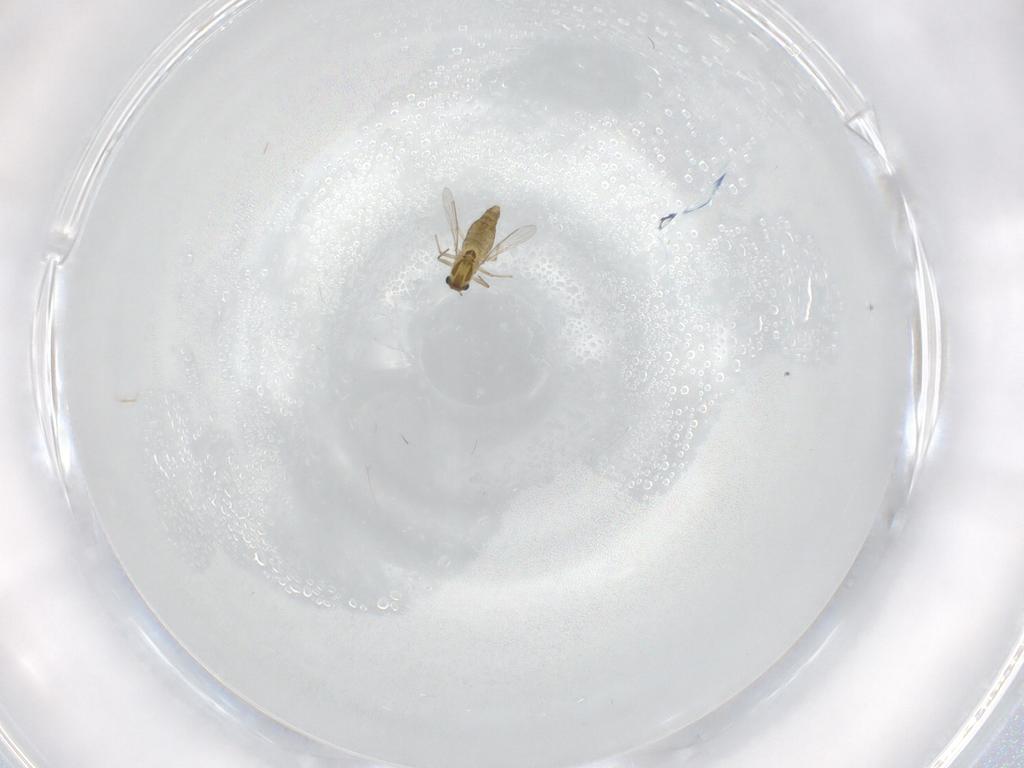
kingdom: Animalia
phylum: Arthropoda
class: Insecta
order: Diptera
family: Chironomidae
